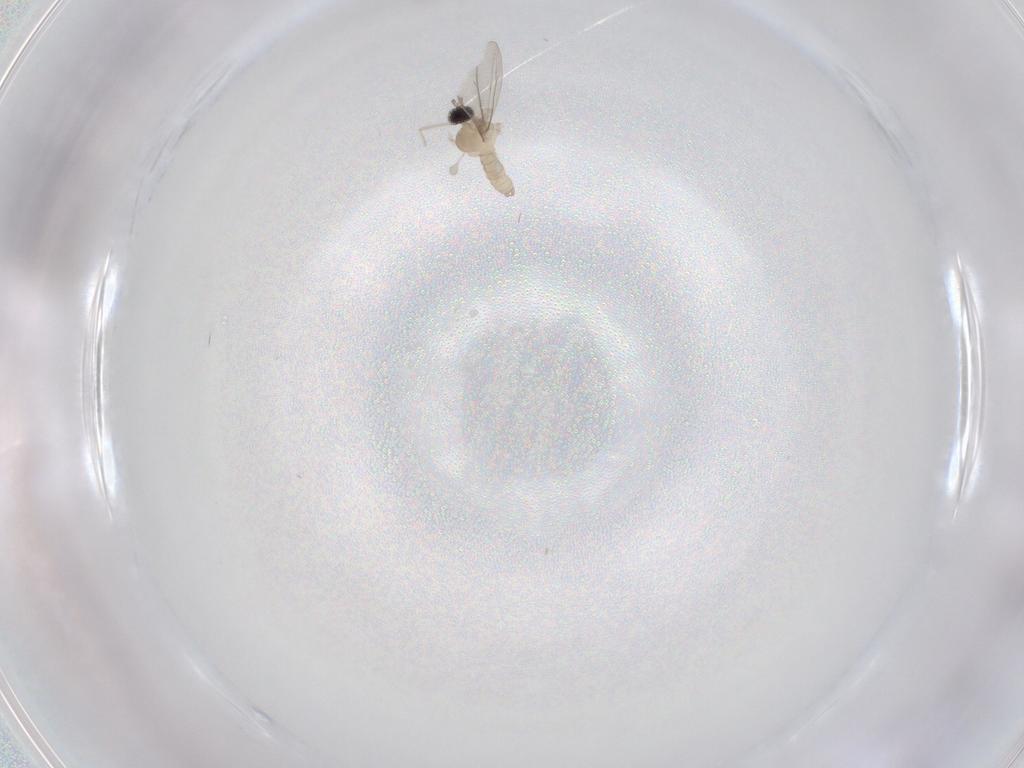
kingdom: Animalia
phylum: Arthropoda
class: Insecta
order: Diptera
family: Cecidomyiidae
